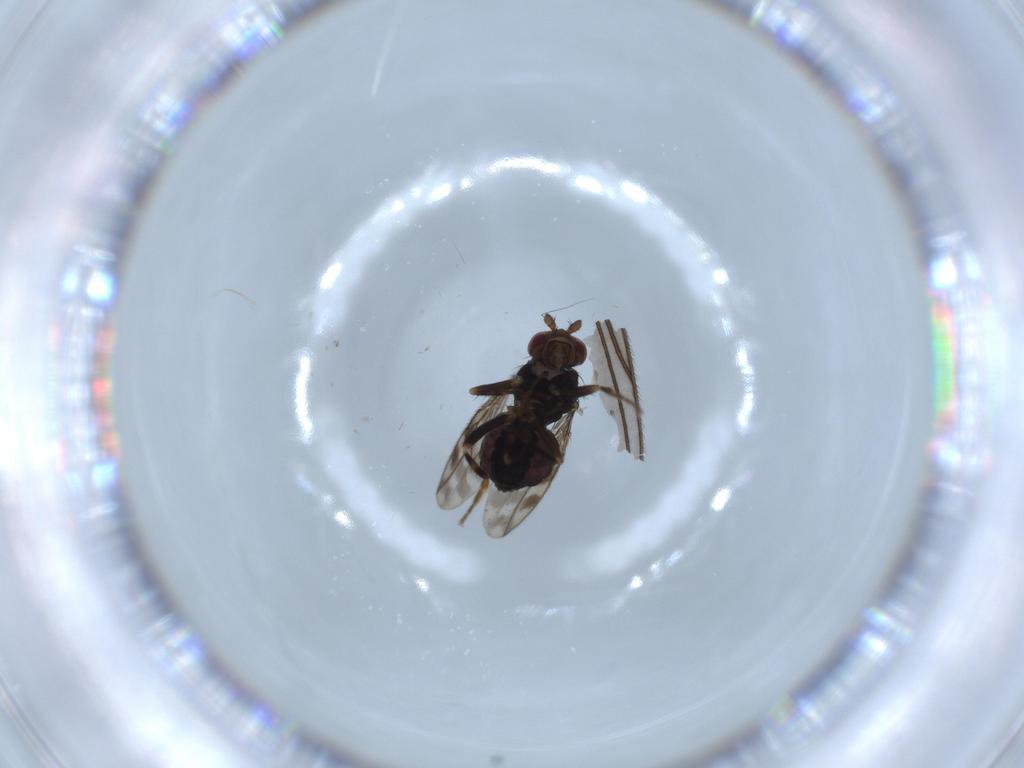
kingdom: Animalia
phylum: Arthropoda
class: Insecta
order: Diptera
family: Sphaeroceridae
